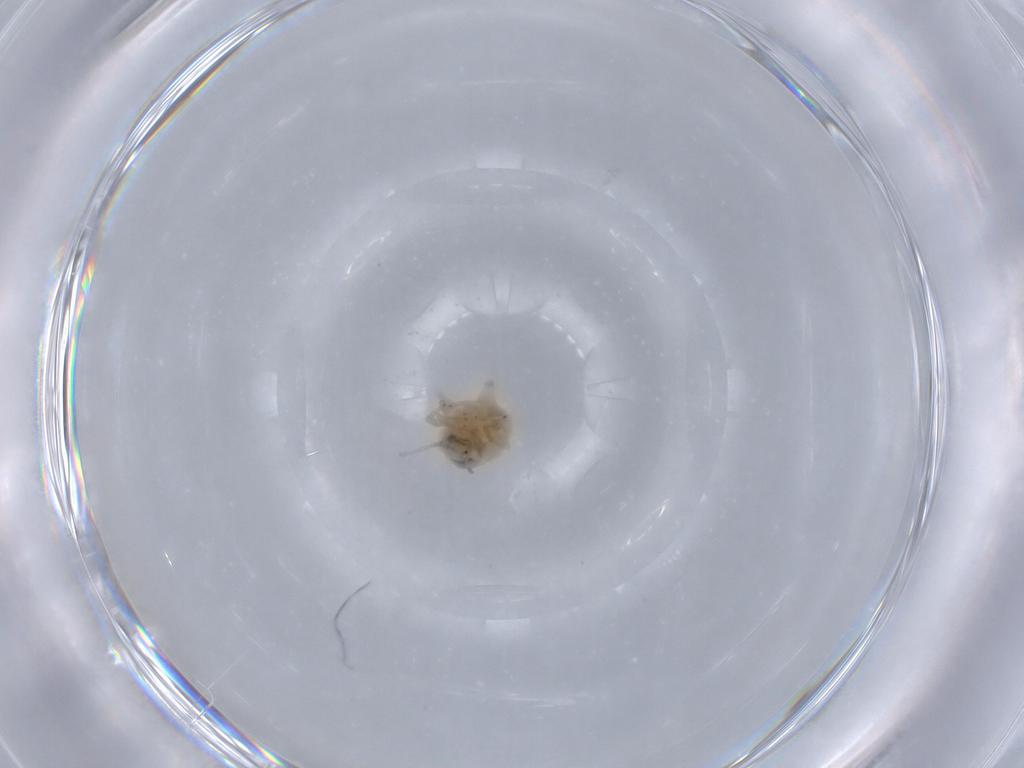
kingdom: Animalia
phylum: Arthropoda
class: Insecta
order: Neuroptera
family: Coniopterygidae
